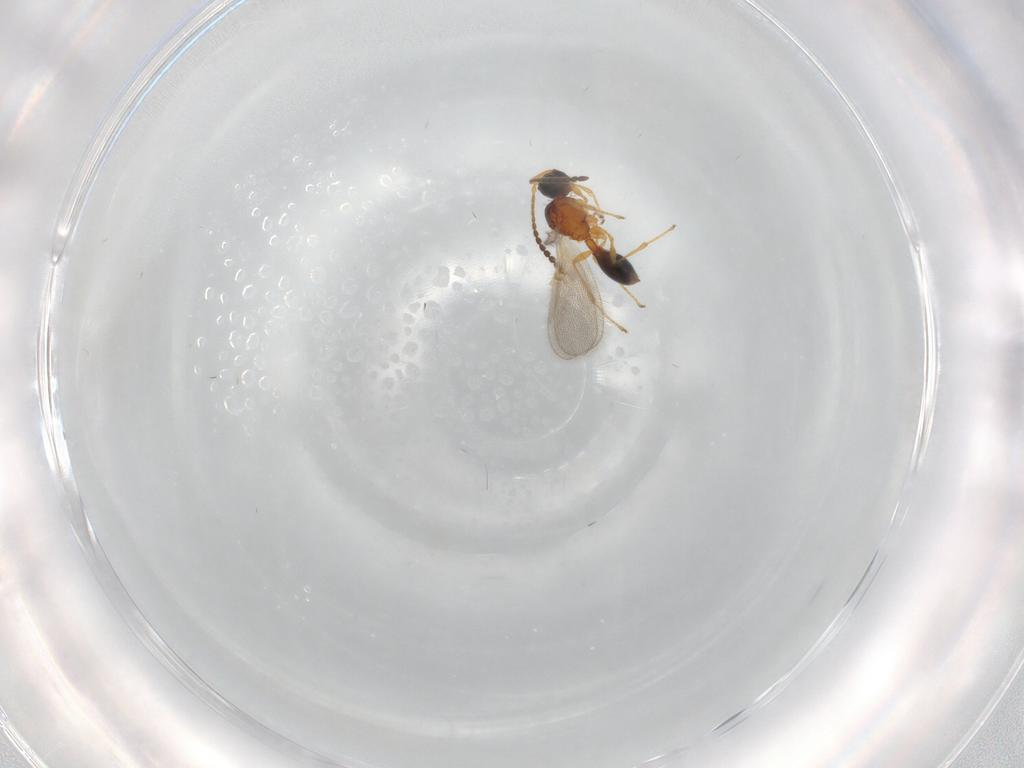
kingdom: Animalia
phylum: Arthropoda
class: Insecta
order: Hymenoptera
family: Diapriidae
